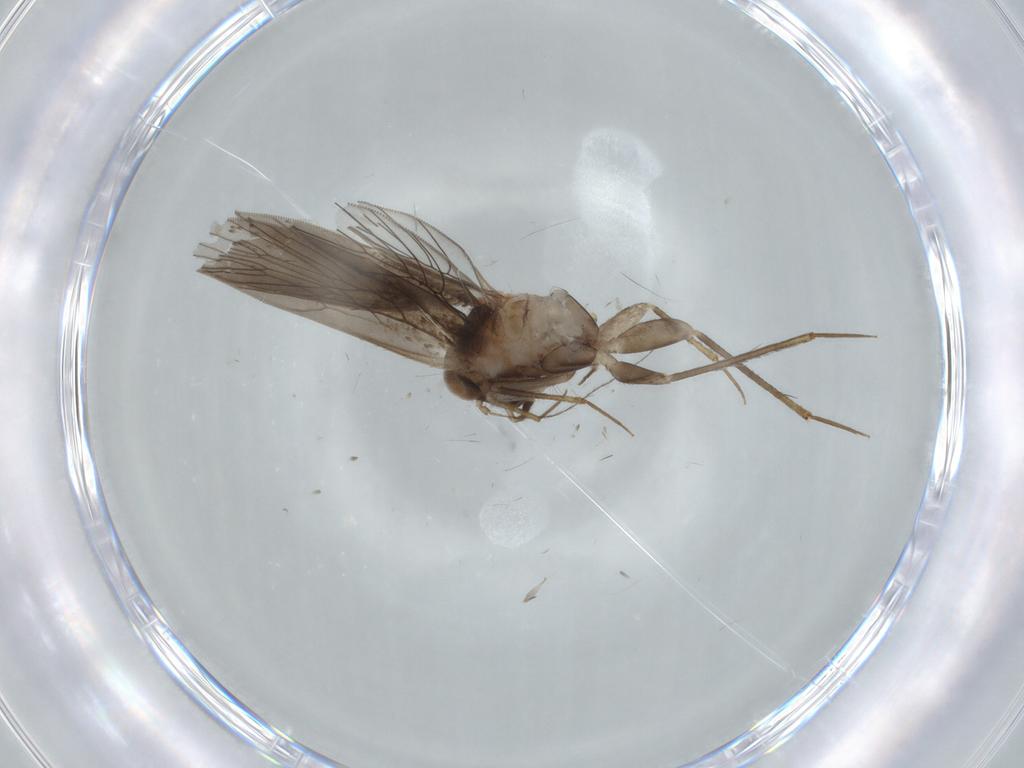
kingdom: Animalia
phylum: Arthropoda
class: Insecta
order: Psocodea
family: Lepidopsocidae
